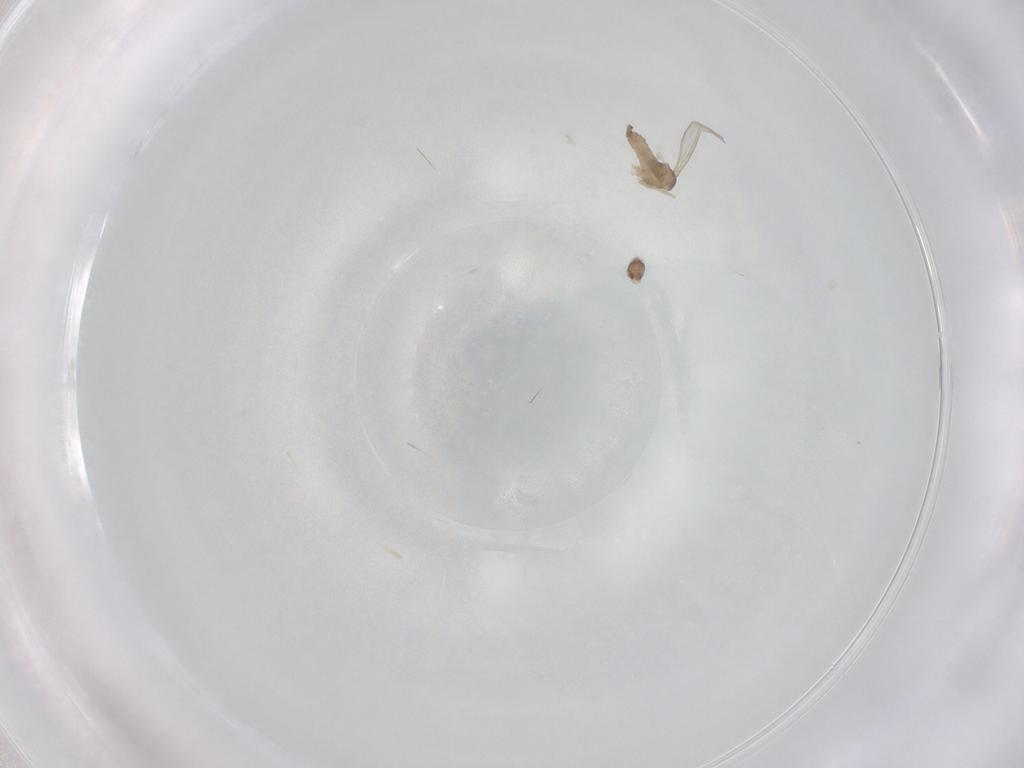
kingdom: Animalia
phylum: Arthropoda
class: Insecta
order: Diptera
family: Cecidomyiidae
